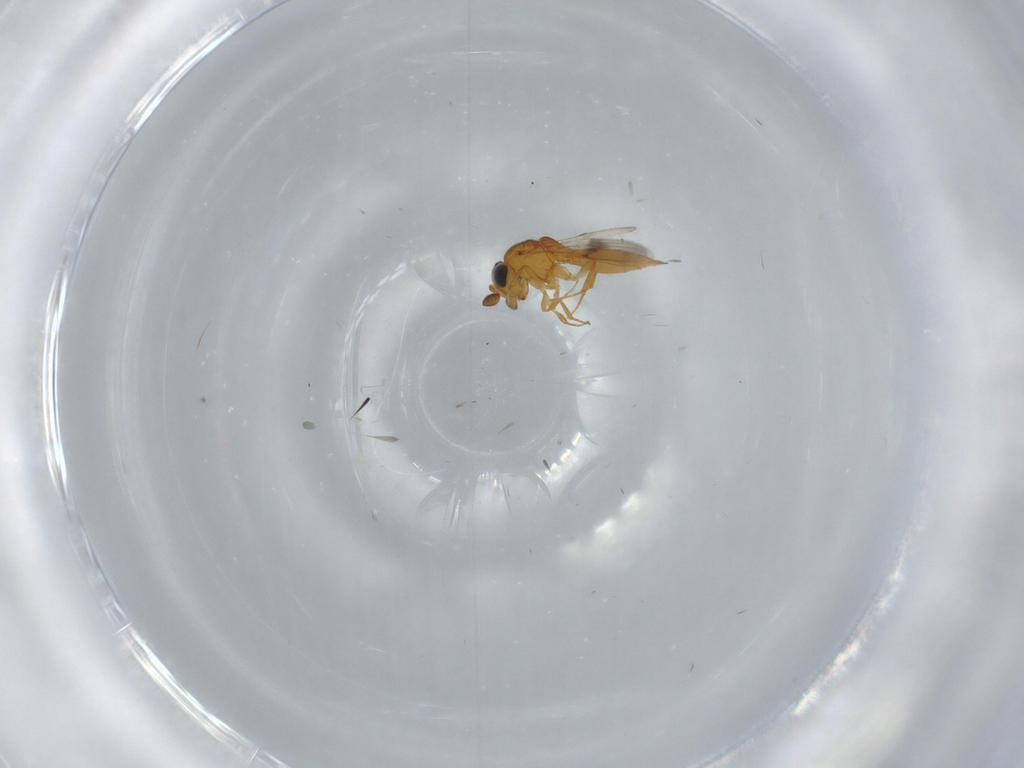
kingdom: Animalia
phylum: Arthropoda
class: Insecta
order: Hymenoptera
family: Scelionidae
